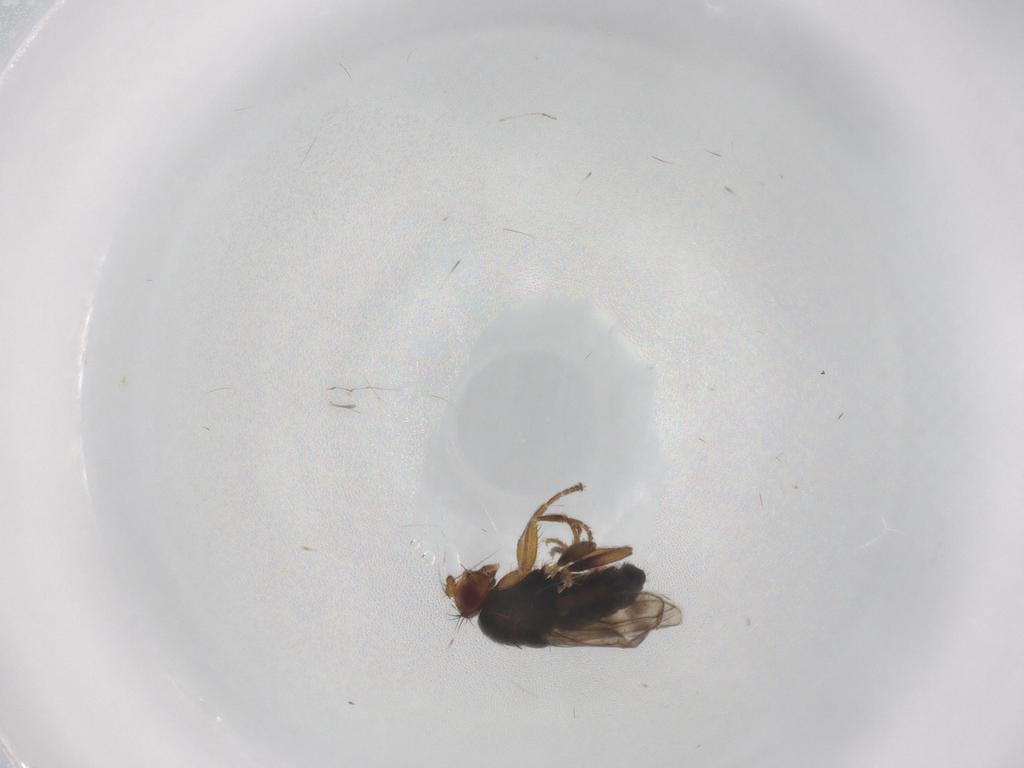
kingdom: Animalia
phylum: Arthropoda
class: Insecta
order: Diptera
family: Sphaeroceridae
